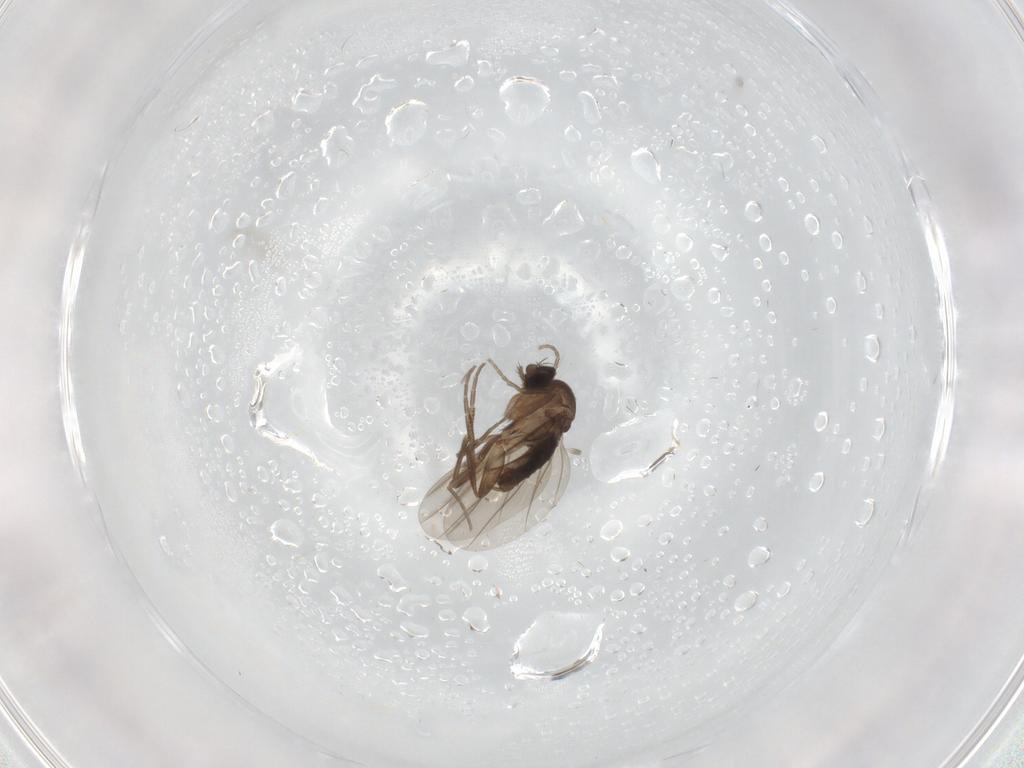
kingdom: Animalia
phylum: Arthropoda
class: Insecta
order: Diptera
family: Phoridae
